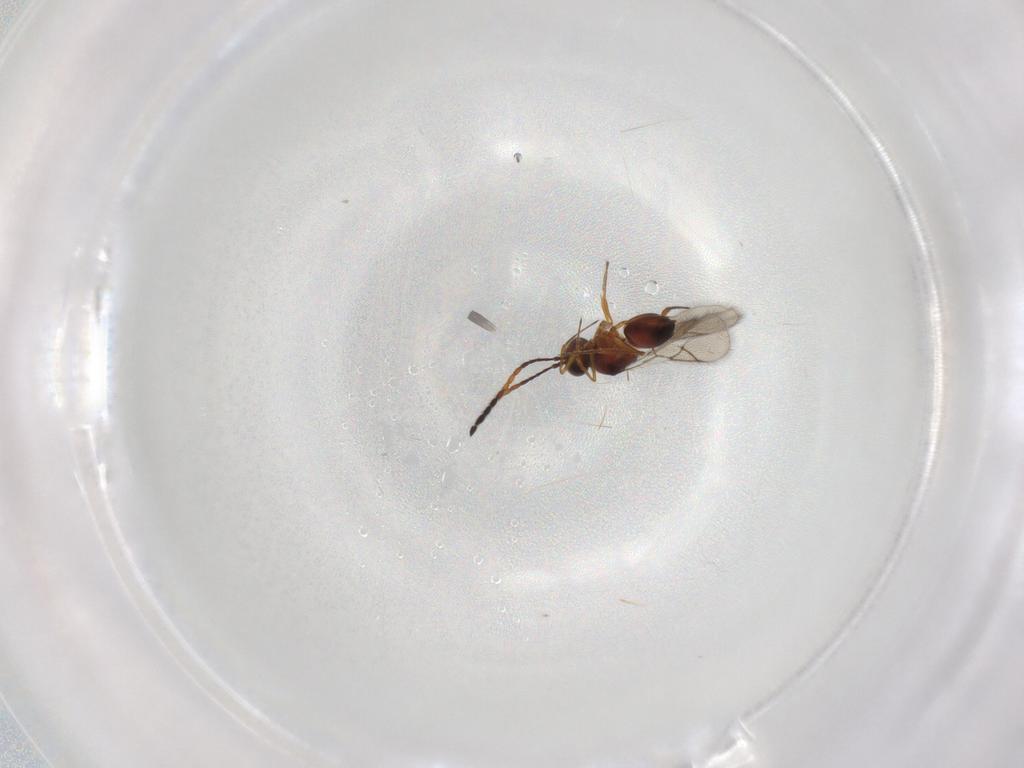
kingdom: Animalia
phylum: Arthropoda
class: Insecta
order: Hymenoptera
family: Figitidae
